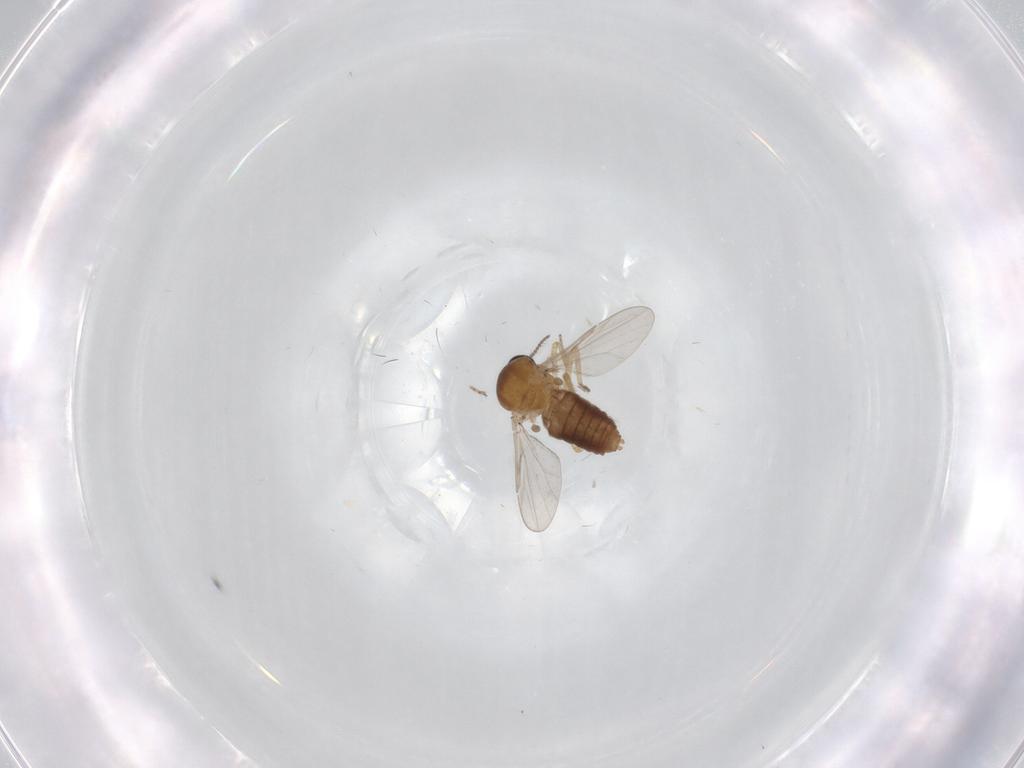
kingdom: Animalia
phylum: Arthropoda
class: Insecta
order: Diptera
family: Ceratopogonidae
